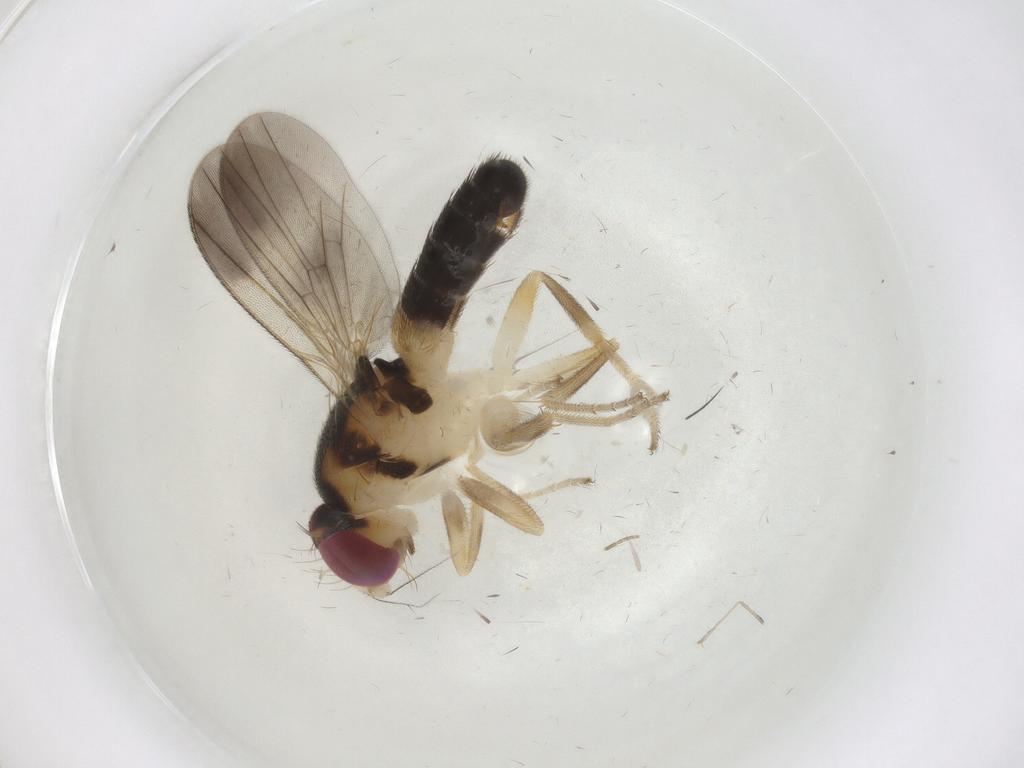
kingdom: Animalia
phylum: Arthropoda
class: Insecta
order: Diptera
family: Clusiidae
